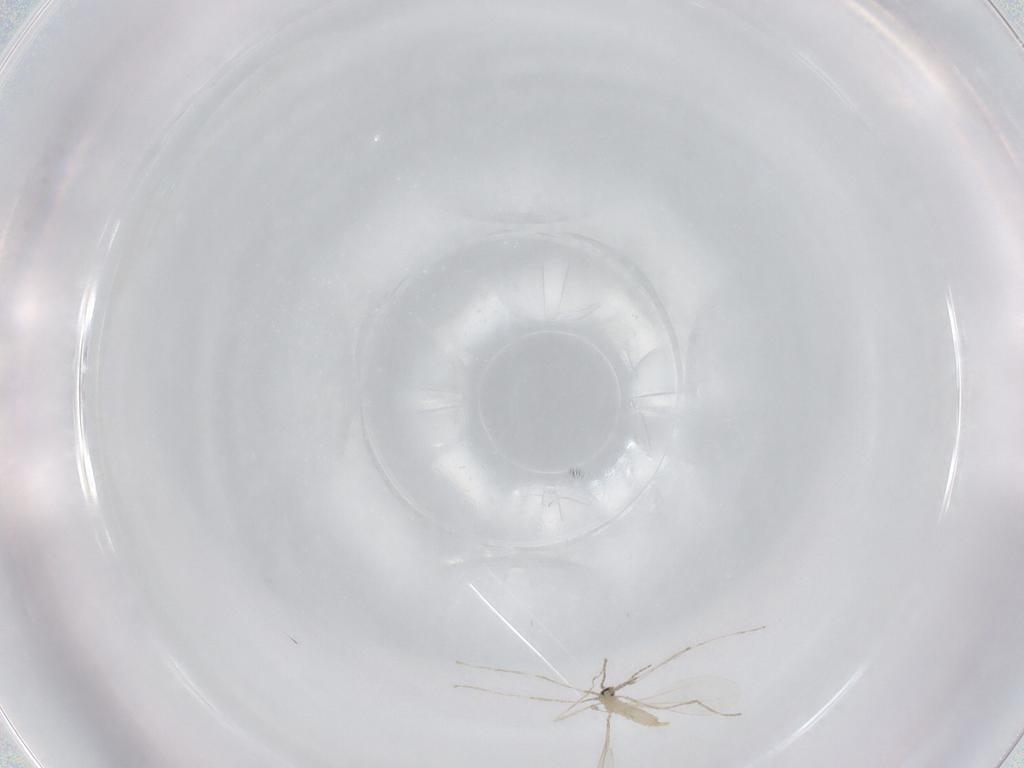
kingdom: Animalia
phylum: Arthropoda
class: Insecta
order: Diptera
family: Cecidomyiidae
